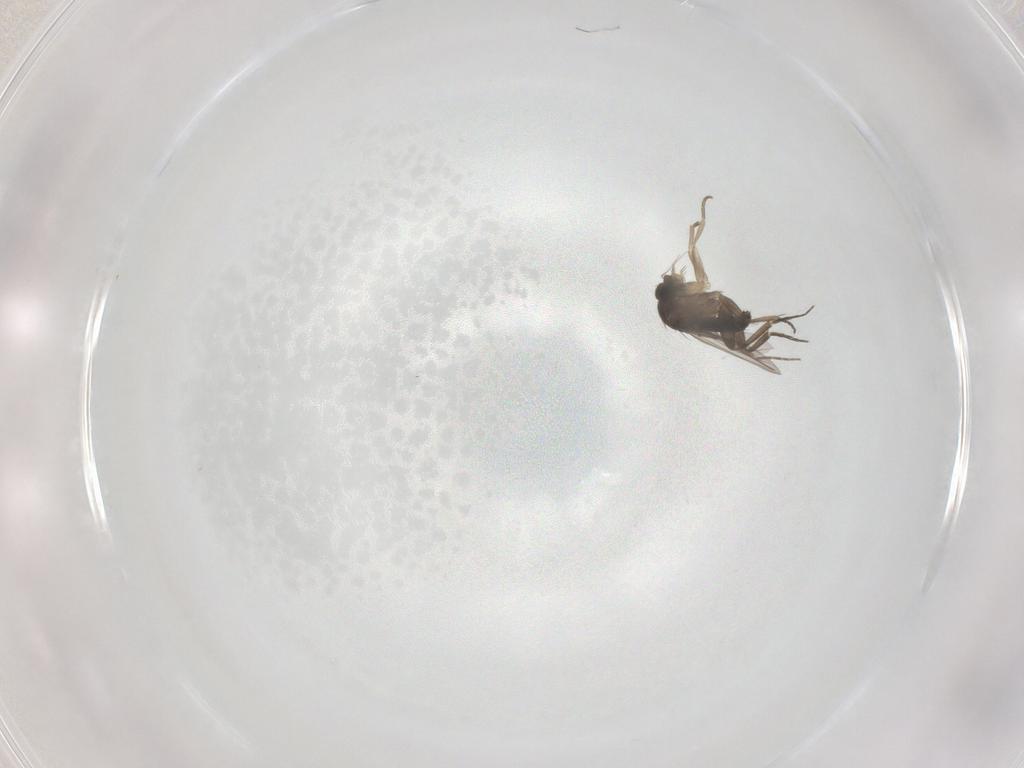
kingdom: Animalia
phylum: Arthropoda
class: Insecta
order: Diptera
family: Phoridae
